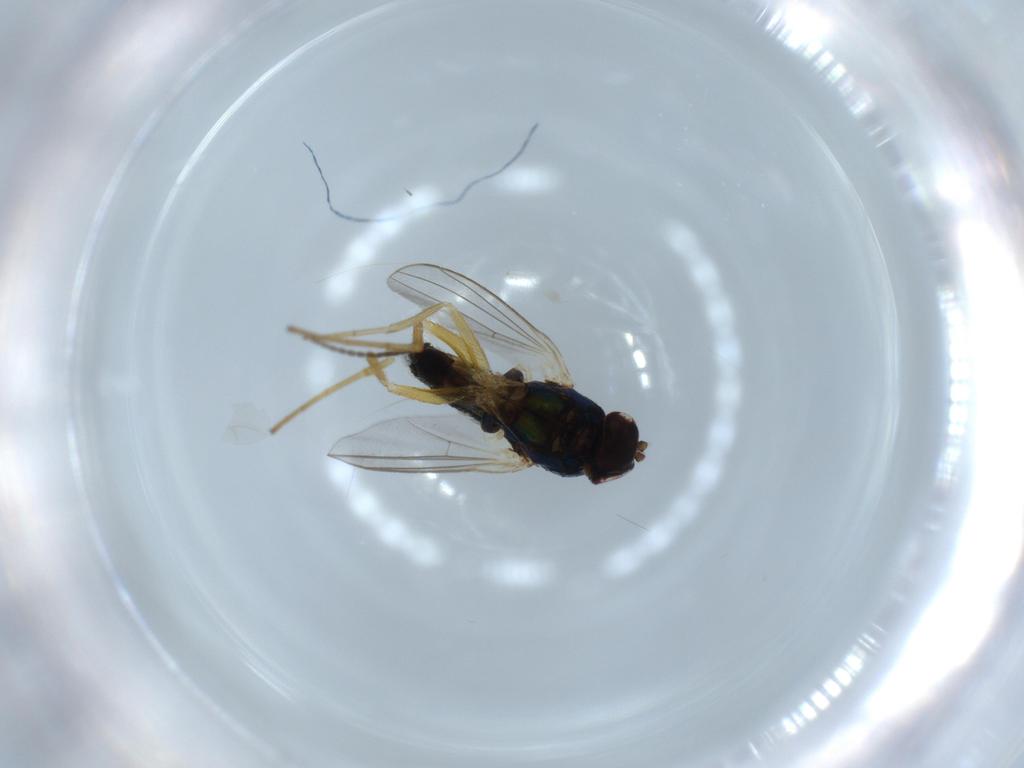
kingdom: Animalia
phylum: Arthropoda
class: Insecta
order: Diptera
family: Dolichopodidae
